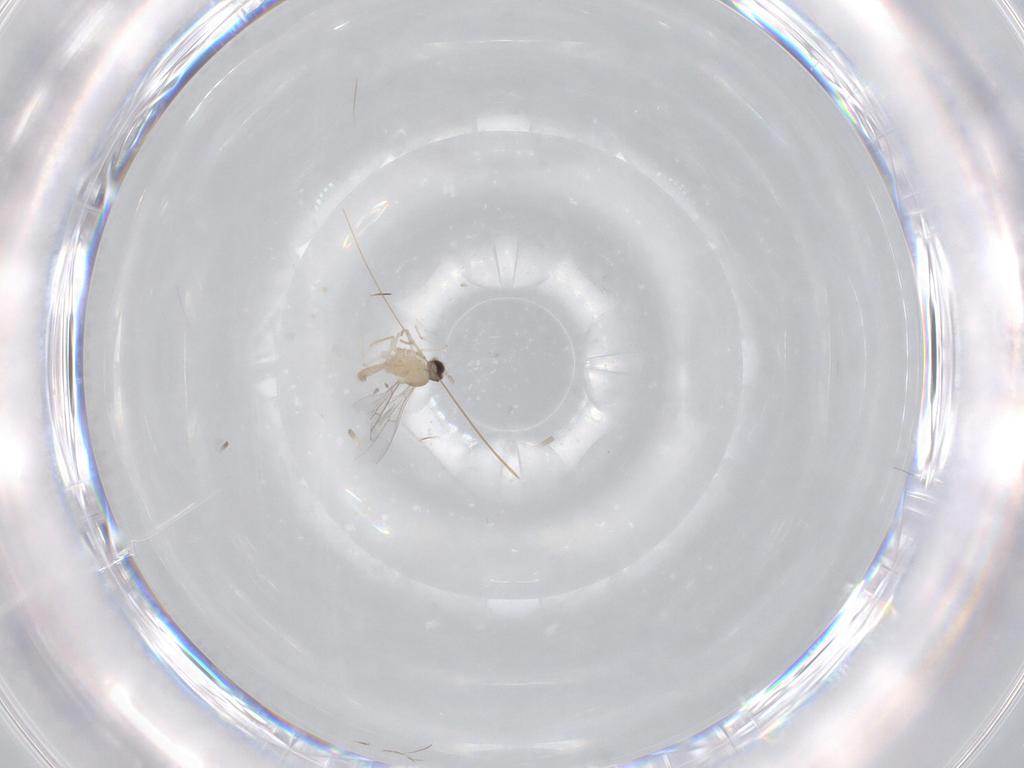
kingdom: Animalia
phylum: Arthropoda
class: Insecta
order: Diptera
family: Cecidomyiidae
